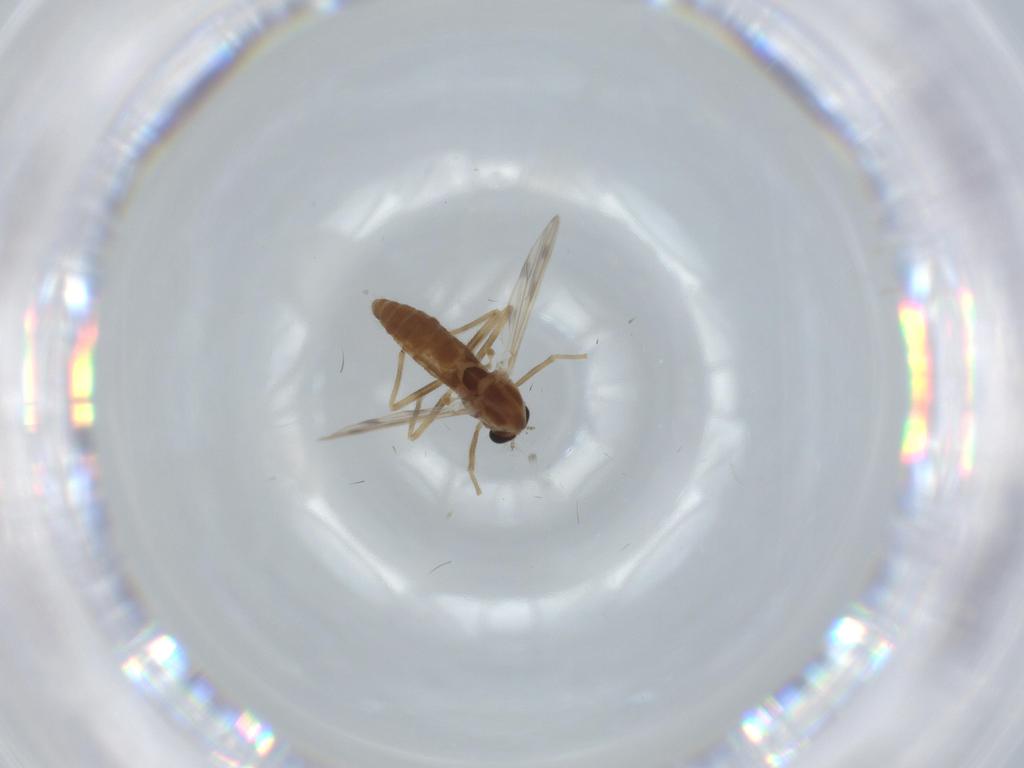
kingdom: Animalia
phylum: Arthropoda
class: Insecta
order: Diptera
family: Chironomidae
